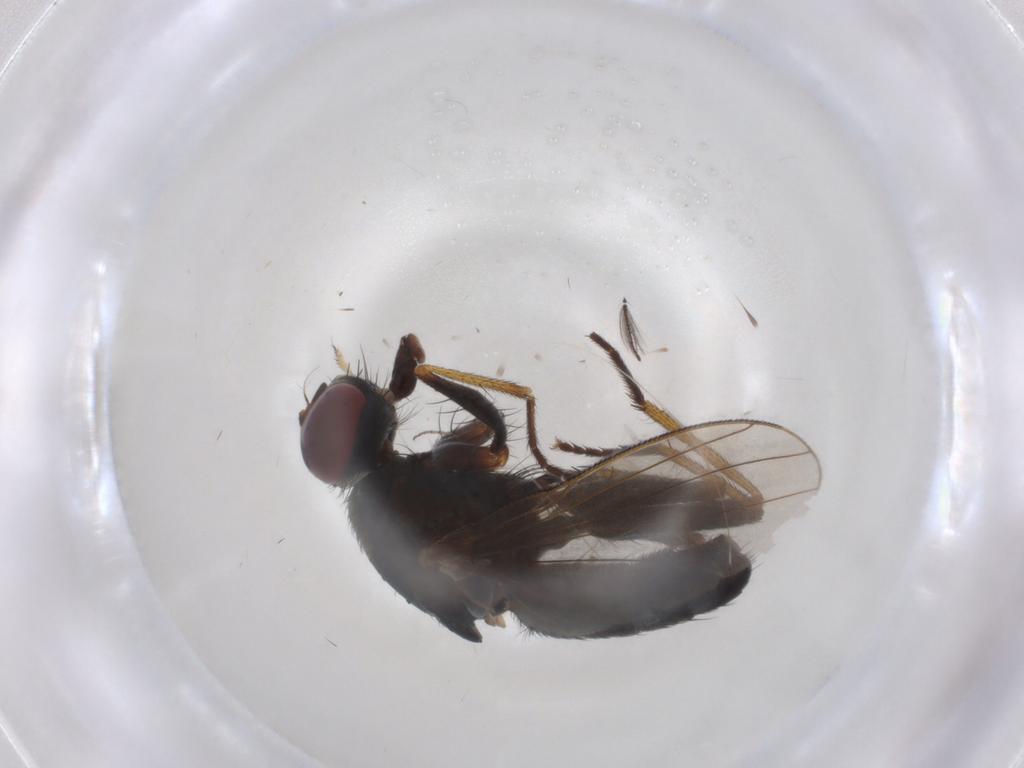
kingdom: Animalia
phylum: Arthropoda
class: Insecta
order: Diptera
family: Muscidae
